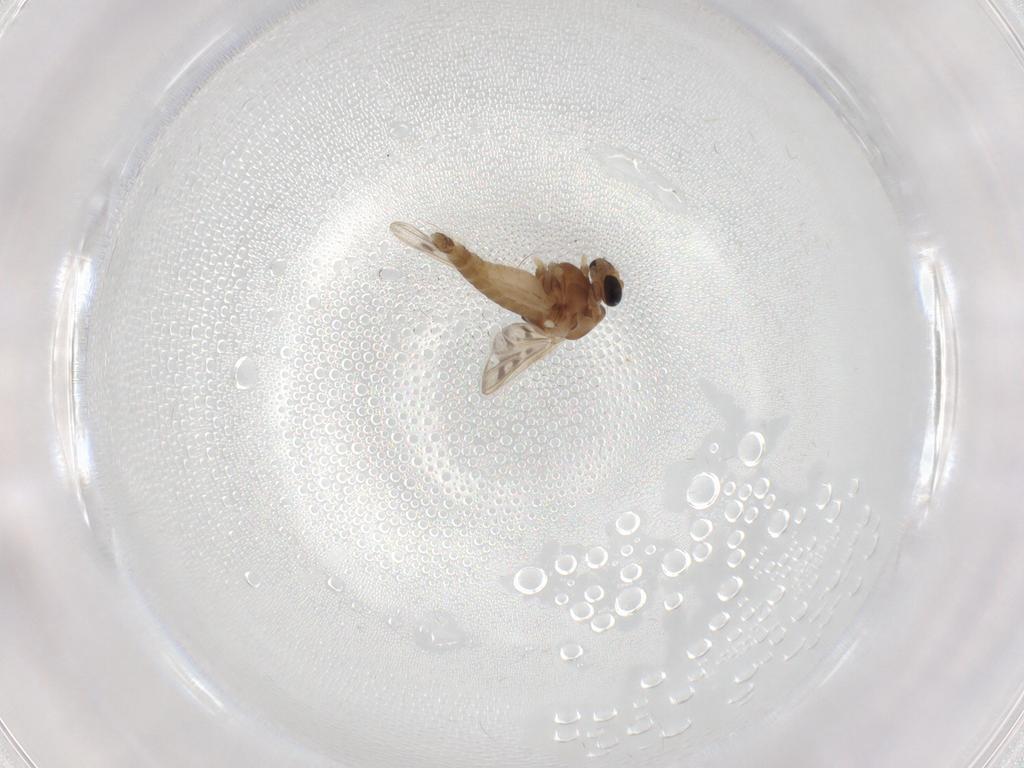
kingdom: Animalia
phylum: Arthropoda
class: Insecta
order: Diptera
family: Chironomidae
